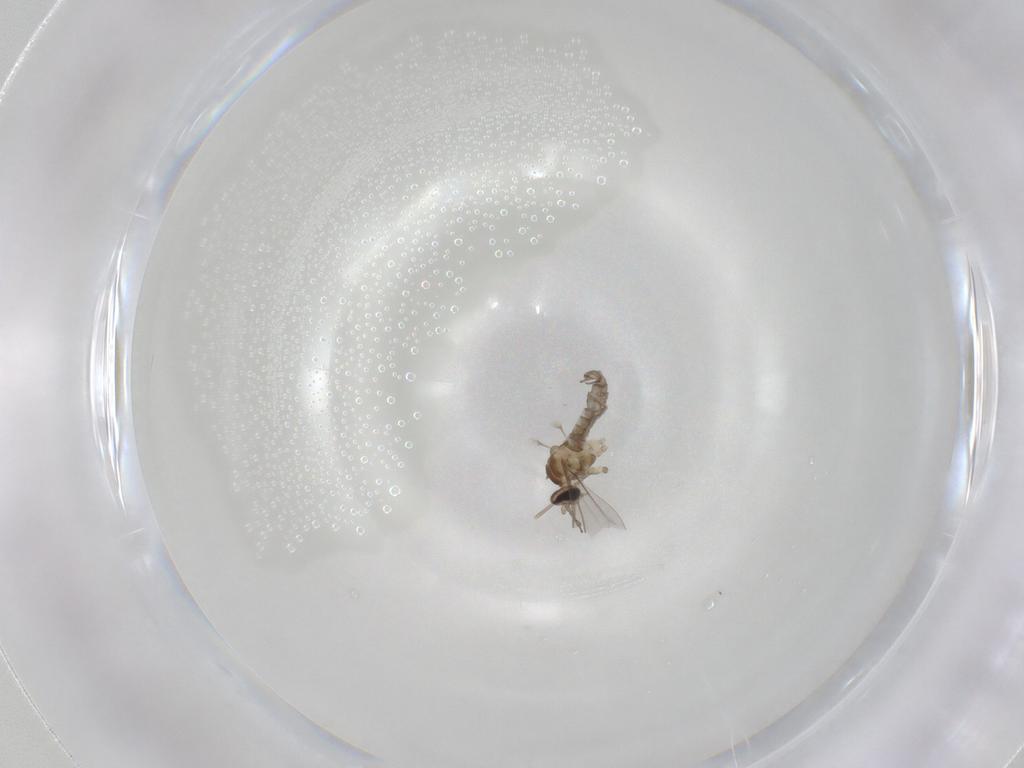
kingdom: Animalia
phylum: Arthropoda
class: Insecta
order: Diptera
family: Cecidomyiidae
